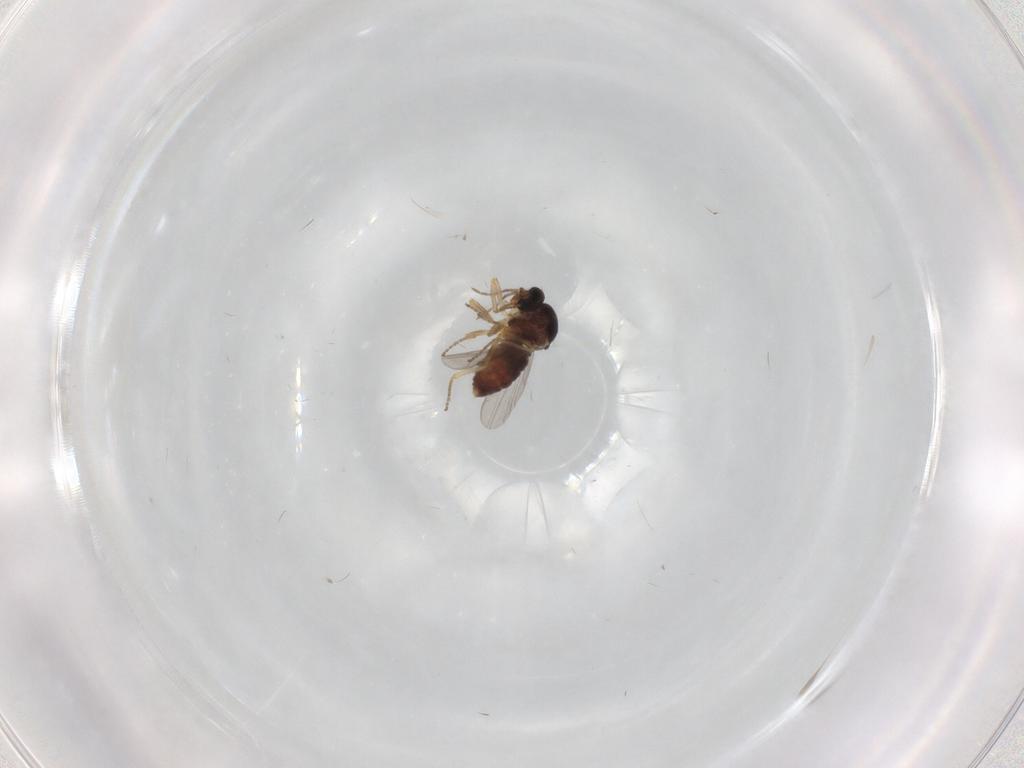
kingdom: Animalia
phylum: Arthropoda
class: Insecta
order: Diptera
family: Ceratopogonidae
